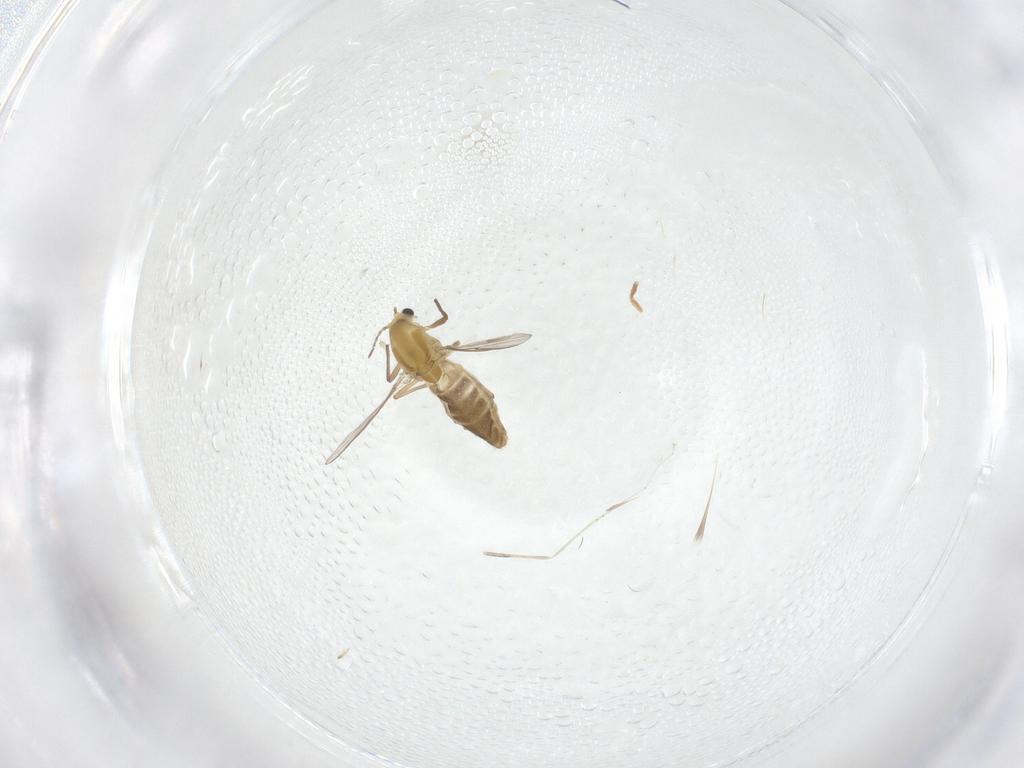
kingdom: Animalia
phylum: Arthropoda
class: Insecta
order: Diptera
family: Chironomidae
